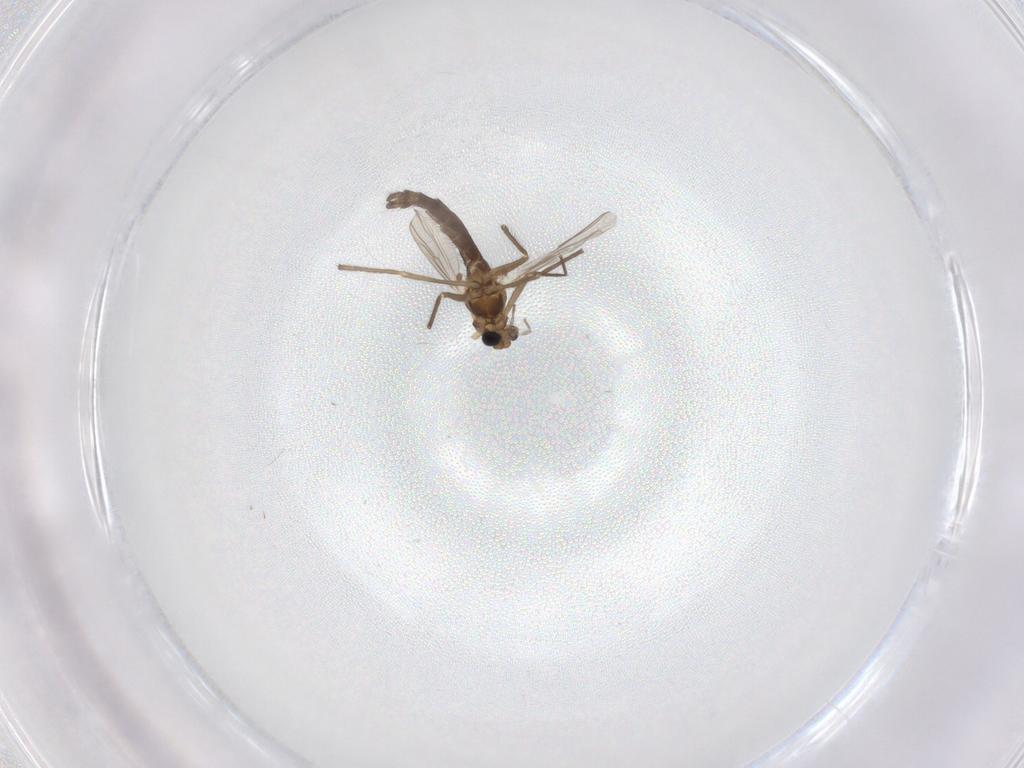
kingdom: Animalia
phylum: Arthropoda
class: Insecta
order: Diptera
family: Chironomidae
